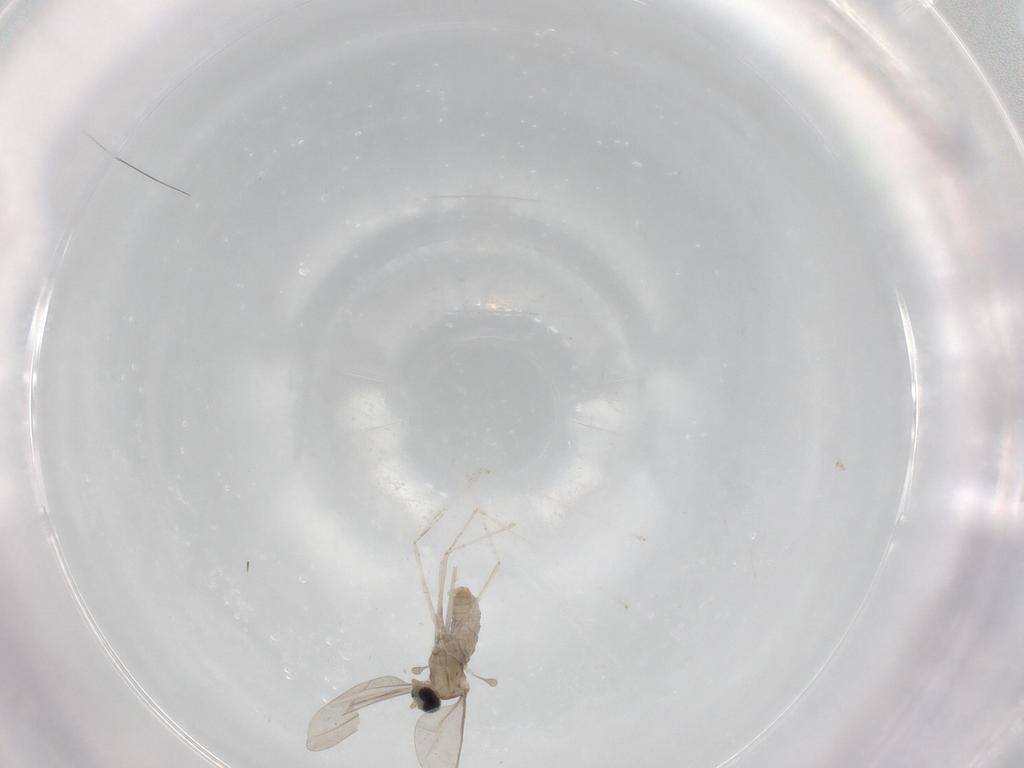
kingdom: Animalia
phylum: Arthropoda
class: Insecta
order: Diptera
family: Cecidomyiidae
